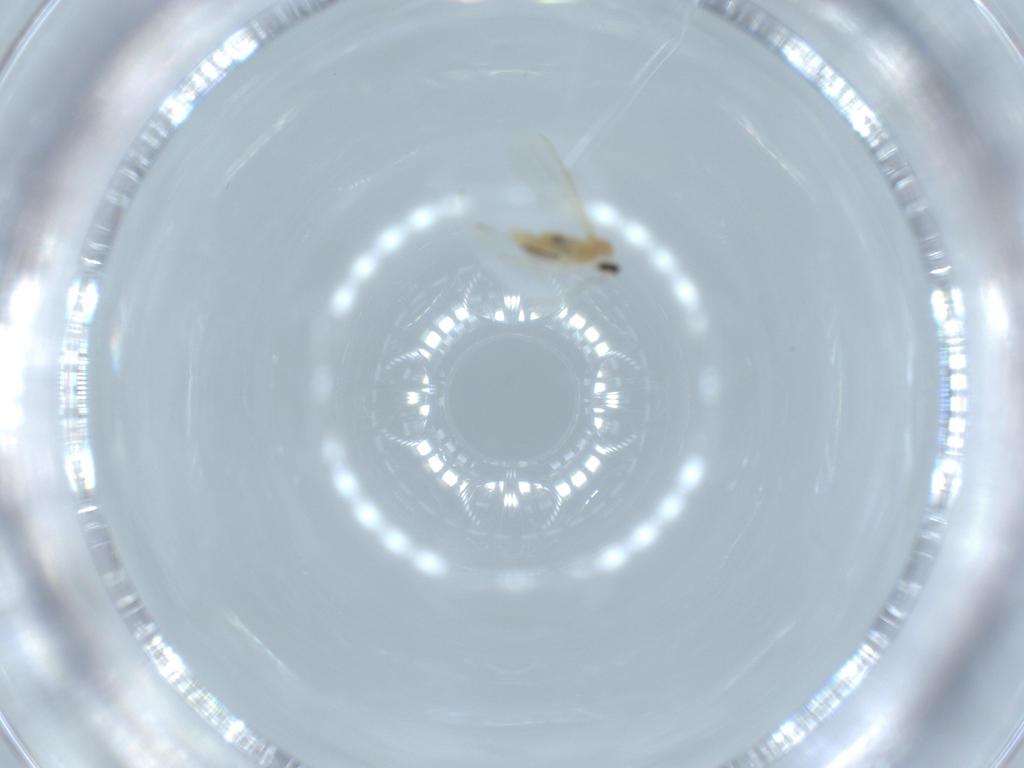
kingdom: Animalia
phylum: Arthropoda
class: Insecta
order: Diptera
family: Cecidomyiidae
